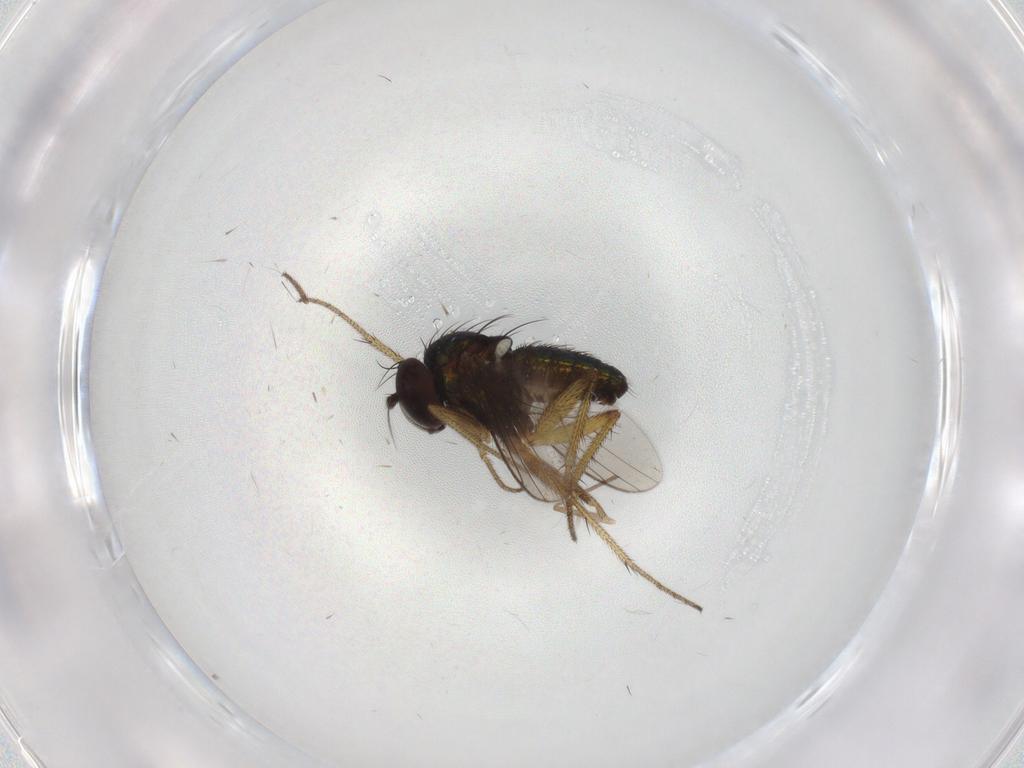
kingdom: Animalia
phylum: Arthropoda
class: Insecta
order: Diptera
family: Dolichopodidae
